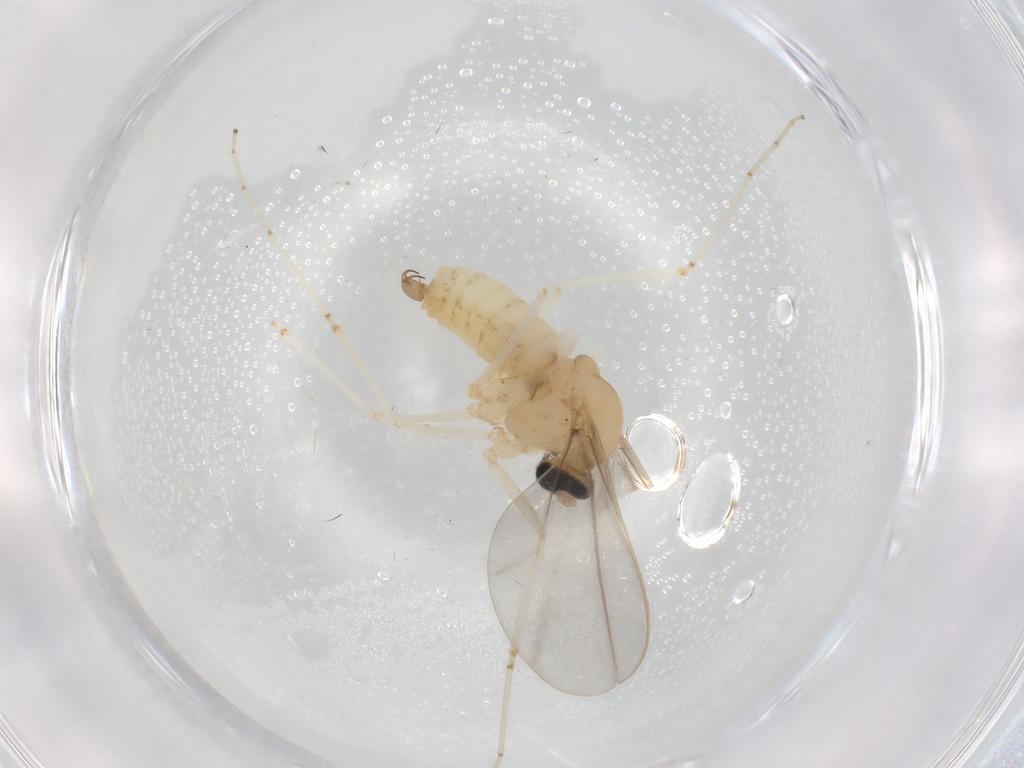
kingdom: Animalia
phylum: Arthropoda
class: Insecta
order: Diptera
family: Cecidomyiidae
